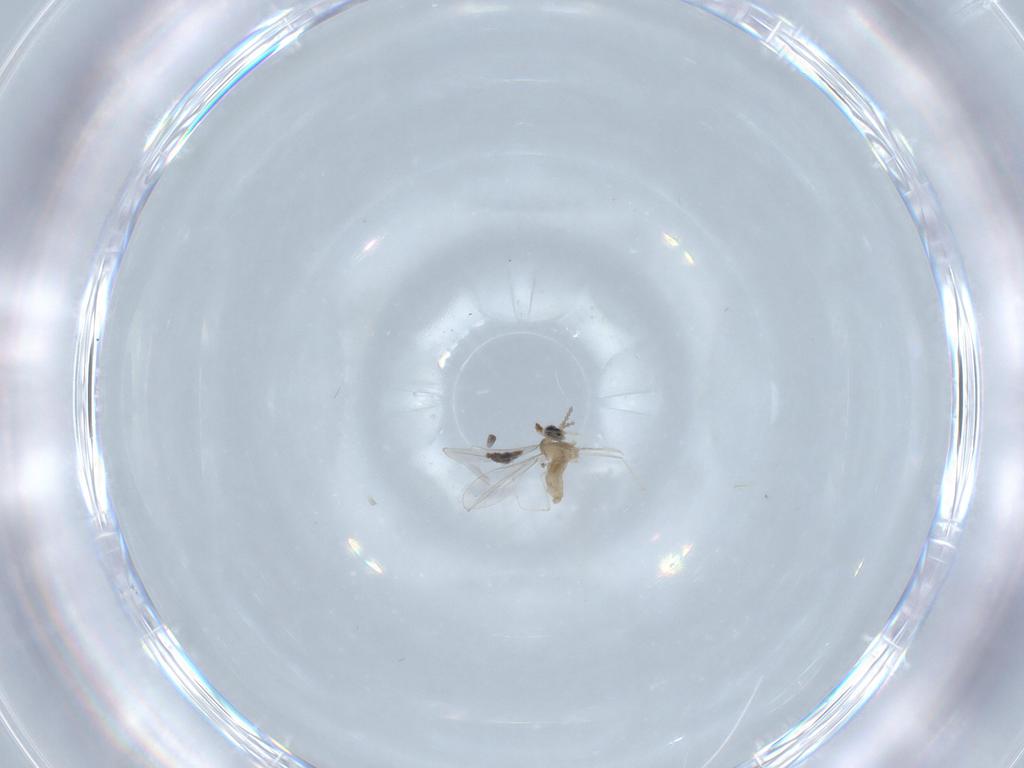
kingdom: Animalia
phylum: Arthropoda
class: Insecta
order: Diptera
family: Cecidomyiidae
